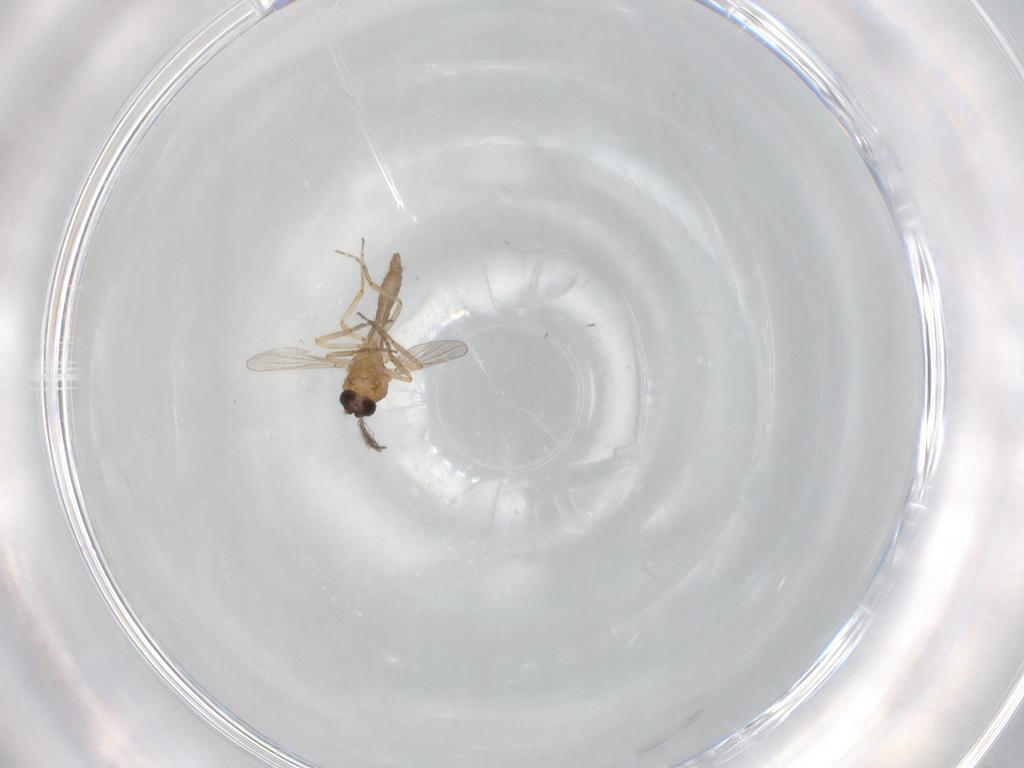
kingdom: Animalia
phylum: Arthropoda
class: Insecta
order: Diptera
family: Ceratopogonidae
